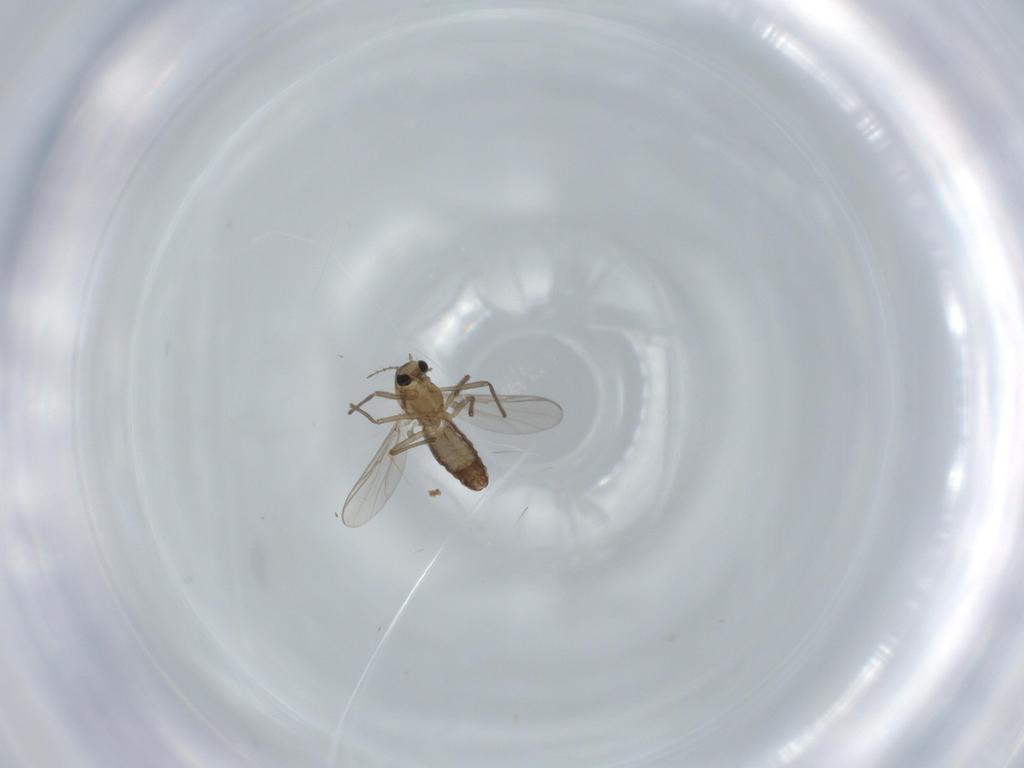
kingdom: Animalia
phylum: Arthropoda
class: Insecta
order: Diptera
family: Chironomidae
